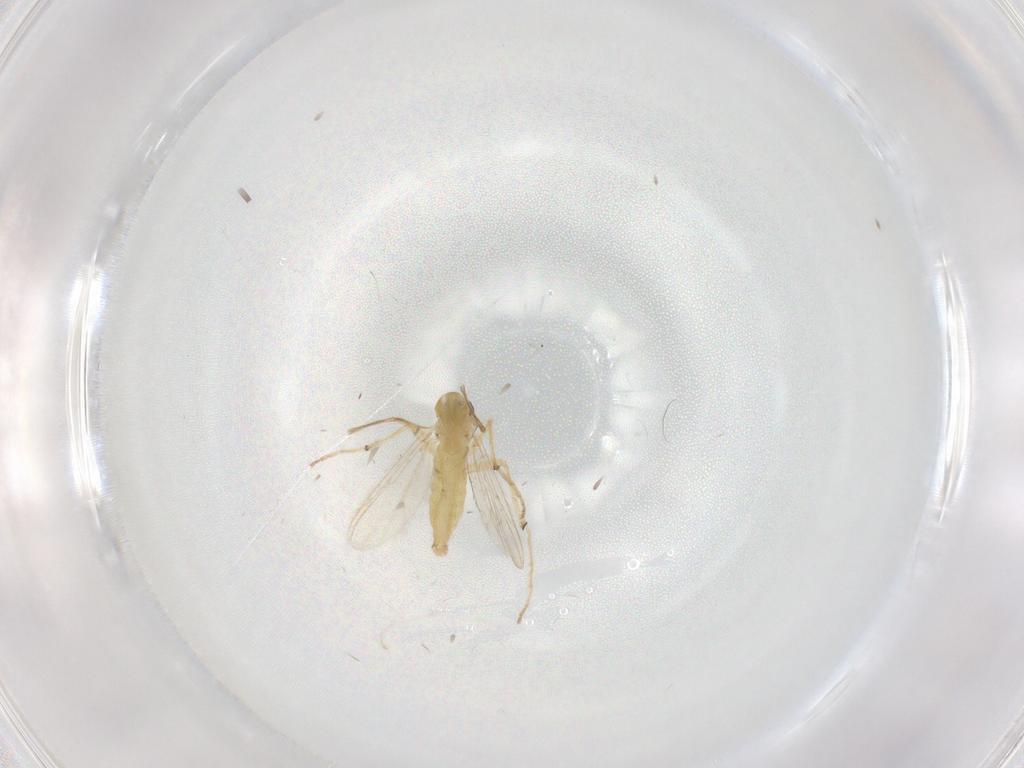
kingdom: Animalia
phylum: Arthropoda
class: Insecta
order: Diptera
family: Chironomidae
